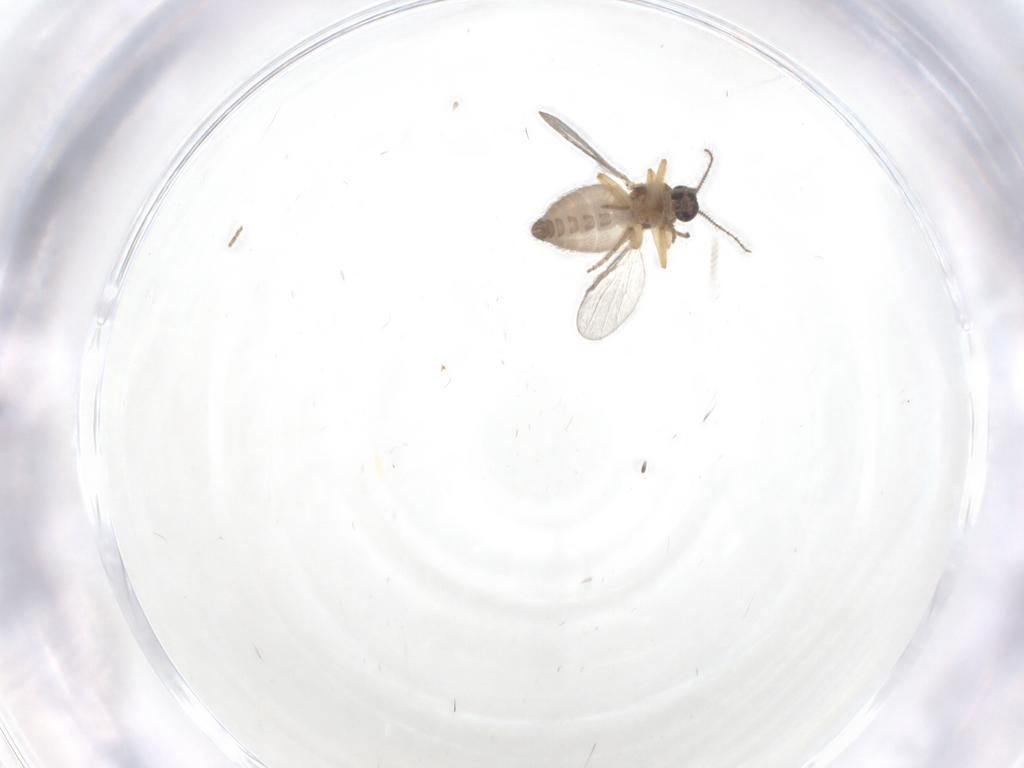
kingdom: Animalia
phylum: Arthropoda
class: Insecta
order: Diptera
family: Ceratopogonidae
